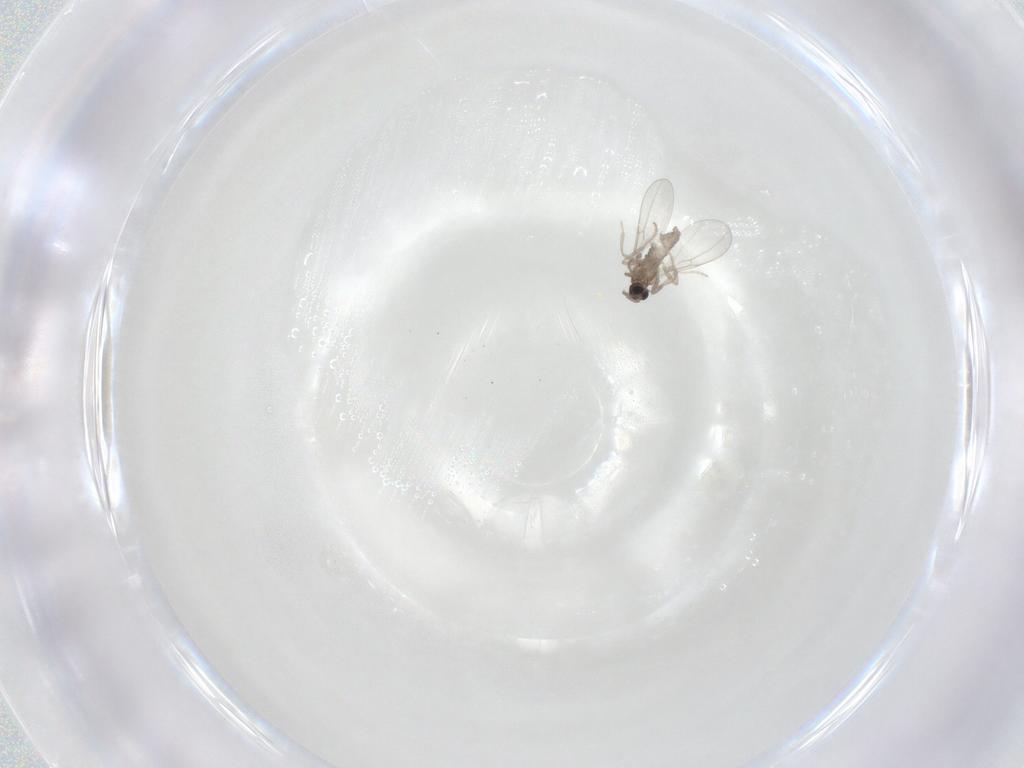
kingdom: Animalia
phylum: Arthropoda
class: Insecta
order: Diptera
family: Cecidomyiidae
